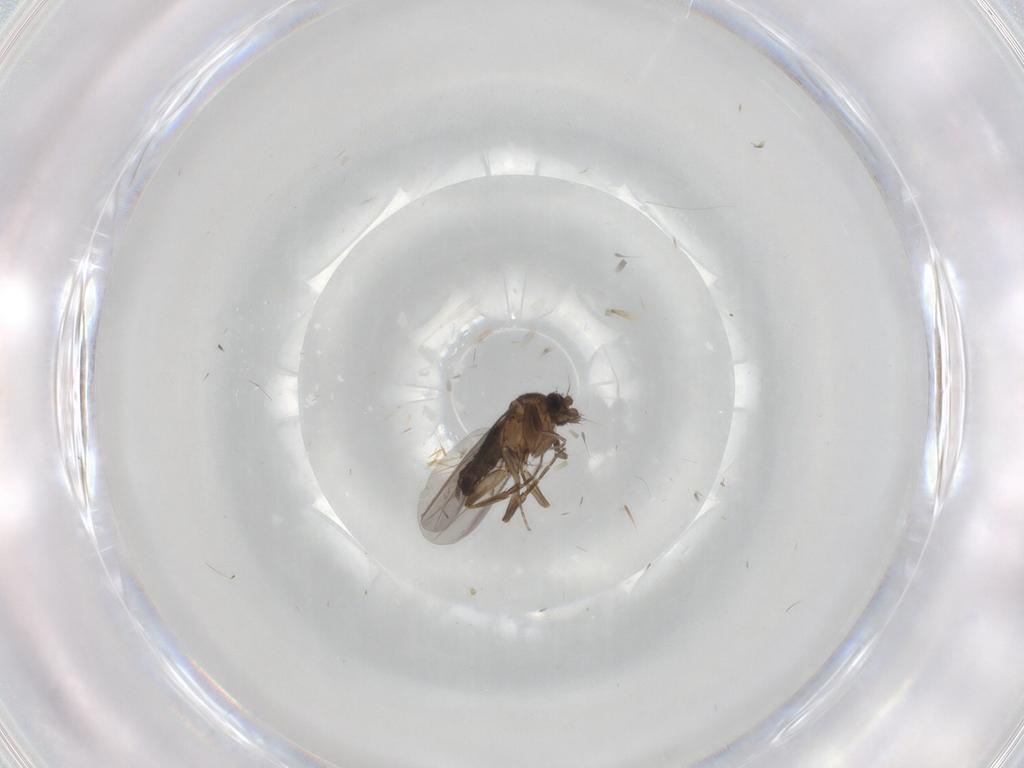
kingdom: Animalia
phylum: Arthropoda
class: Insecta
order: Diptera
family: Phoridae
